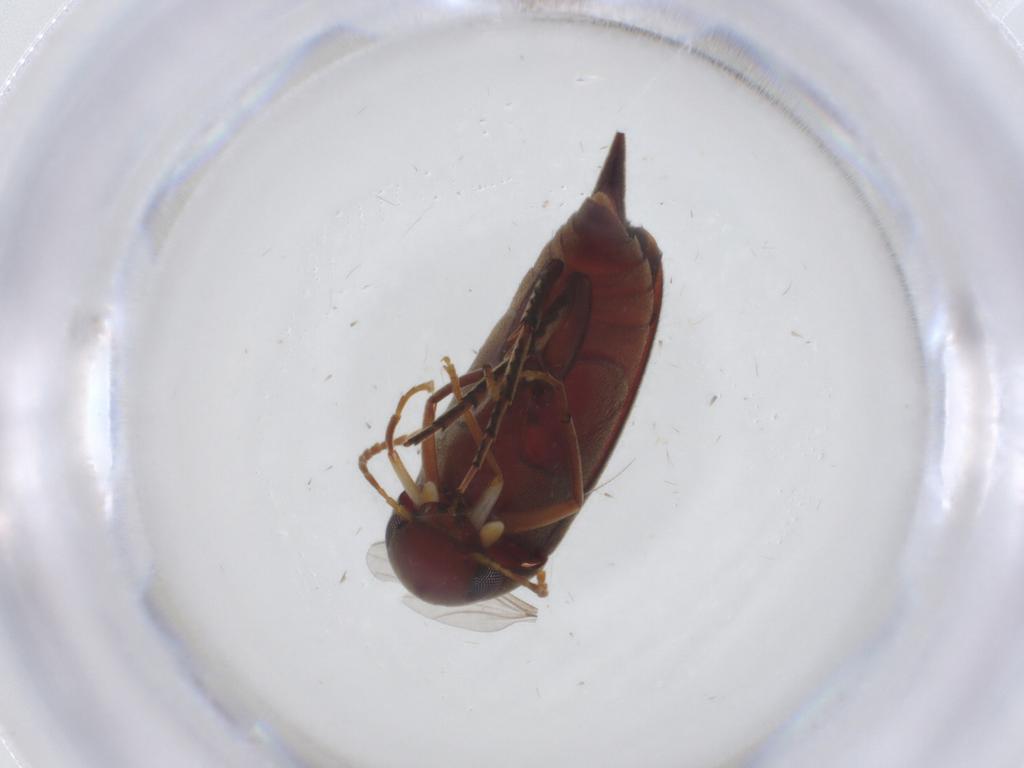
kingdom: Animalia
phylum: Arthropoda
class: Insecta
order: Coleoptera
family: Mordellidae
